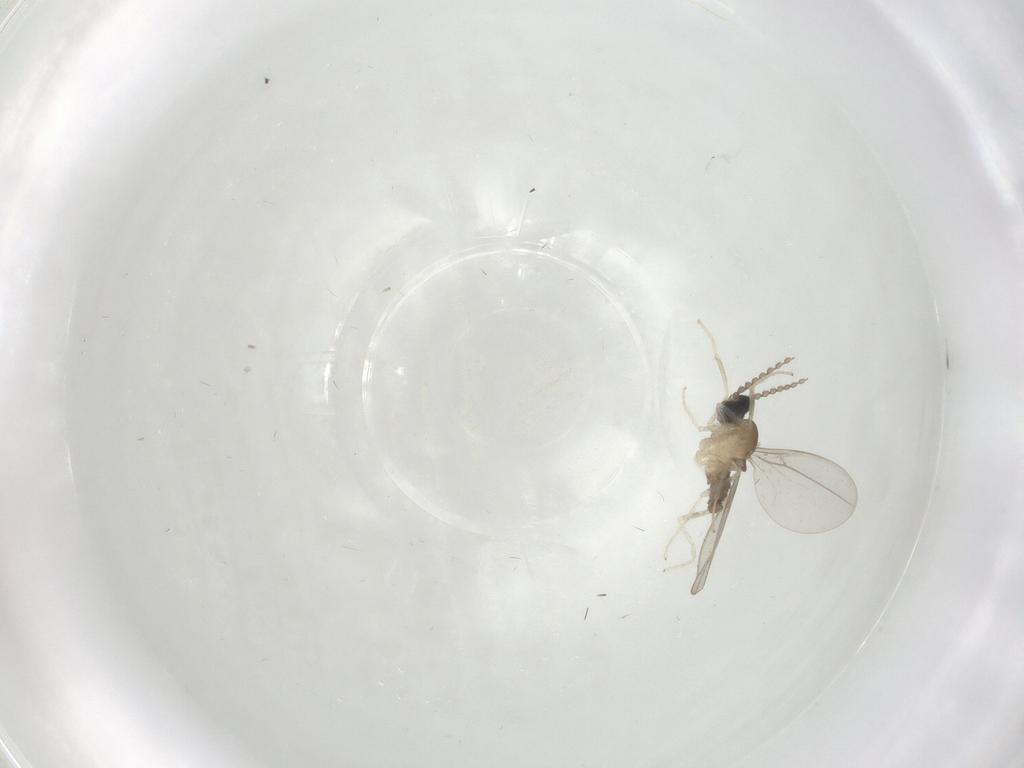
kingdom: Animalia
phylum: Arthropoda
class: Insecta
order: Diptera
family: Cecidomyiidae
